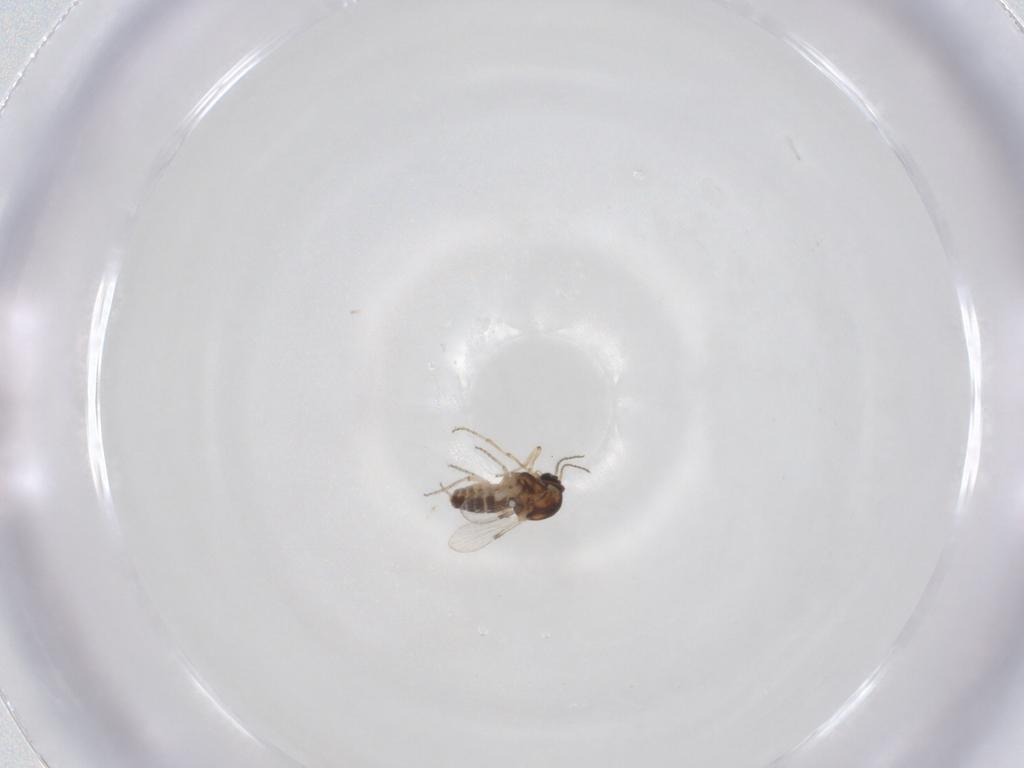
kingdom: Animalia
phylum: Arthropoda
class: Insecta
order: Diptera
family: Ceratopogonidae
